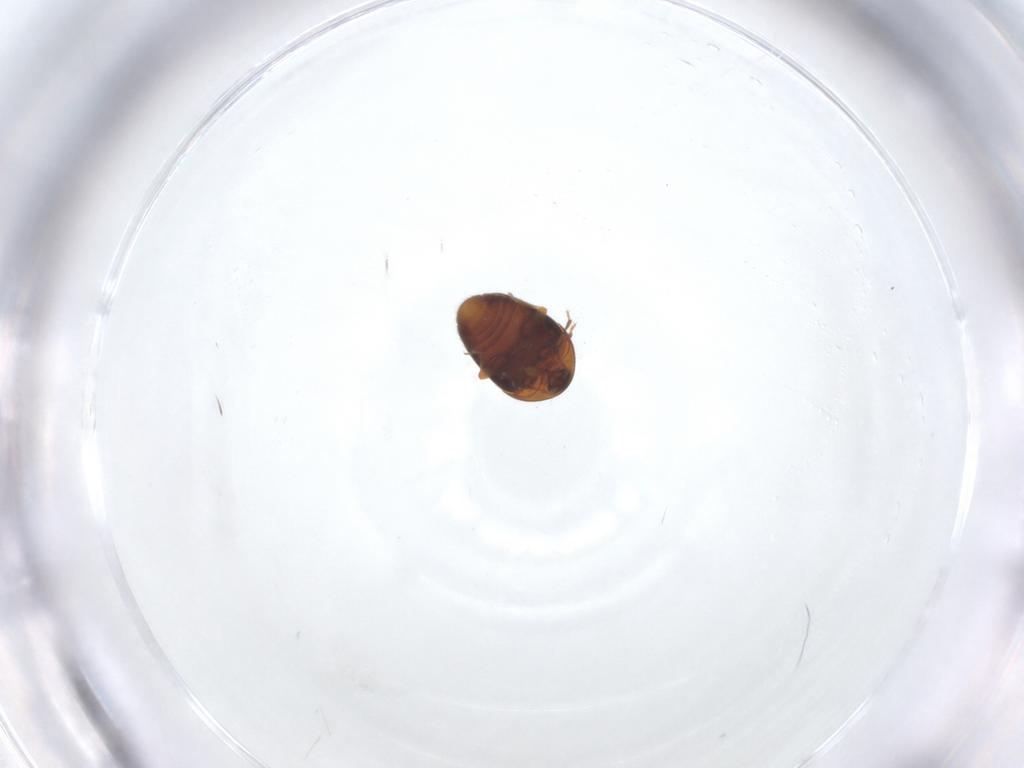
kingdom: Animalia
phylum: Arthropoda
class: Insecta
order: Coleoptera
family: Corylophidae
